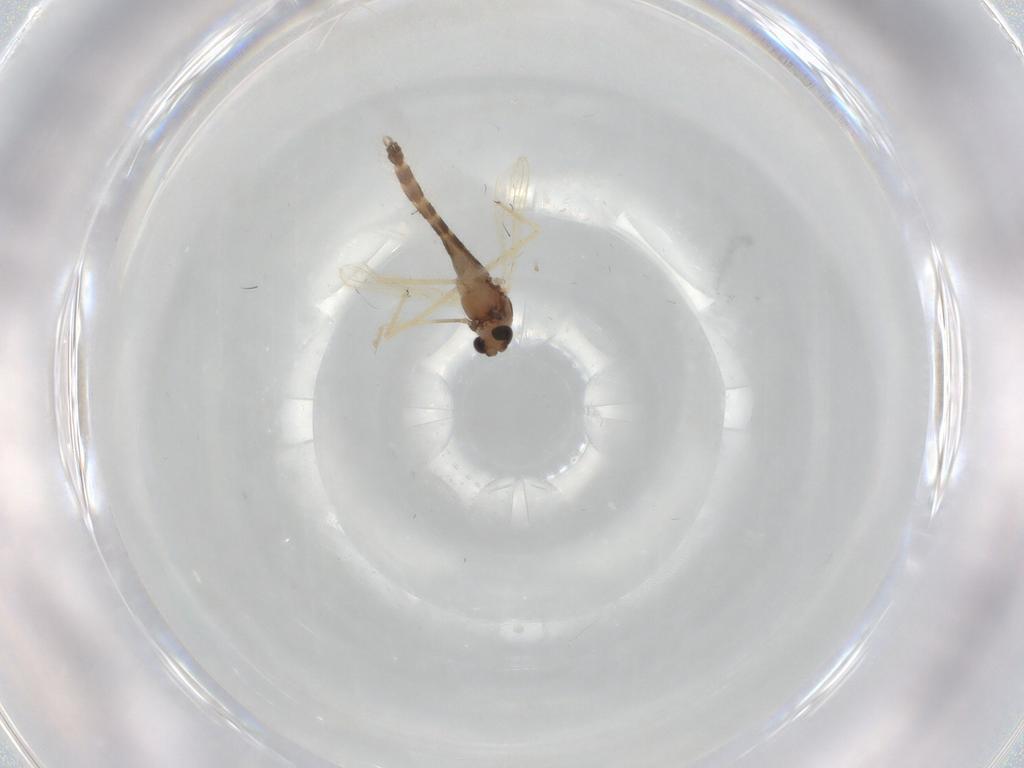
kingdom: Animalia
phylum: Arthropoda
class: Insecta
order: Diptera
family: Chironomidae
